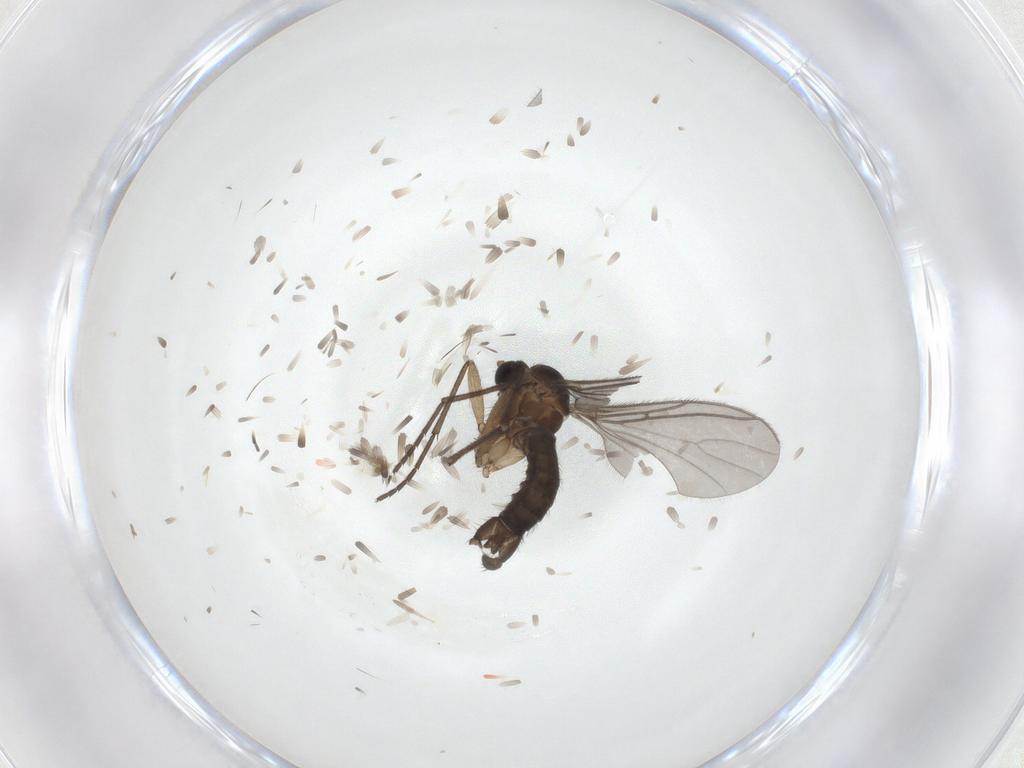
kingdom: Animalia
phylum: Arthropoda
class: Insecta
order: Diptera
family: Sciaridae
